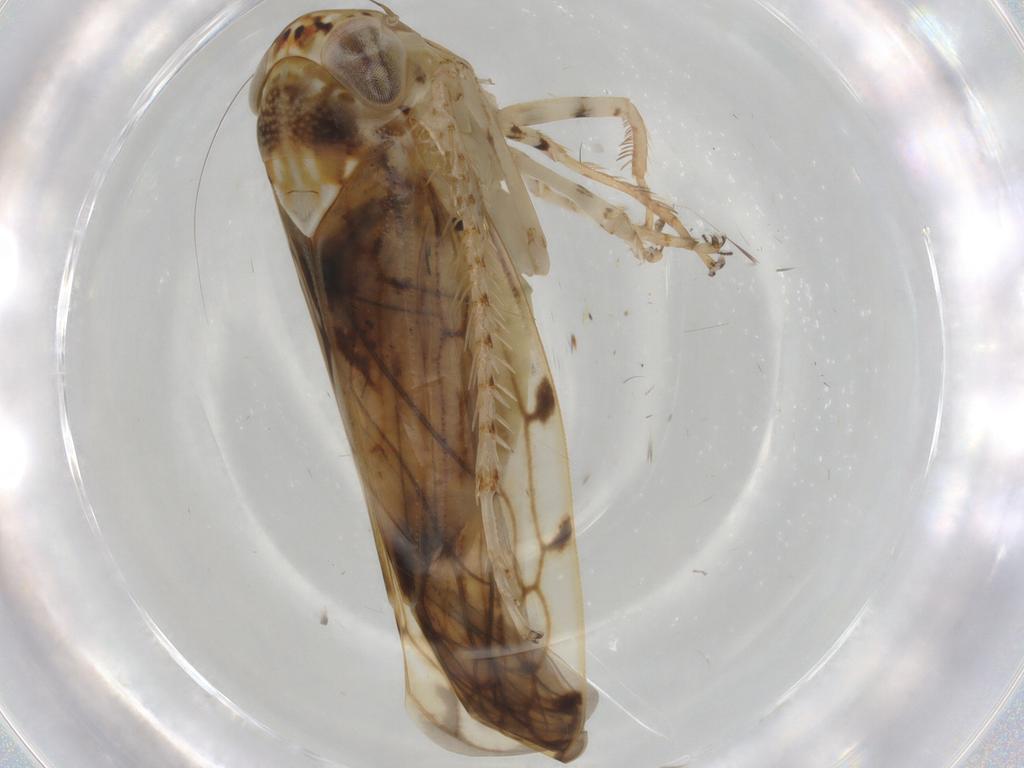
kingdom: Animalia
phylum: Arthropoda
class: Insecta
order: Hemiptera
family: Cicadellidae
